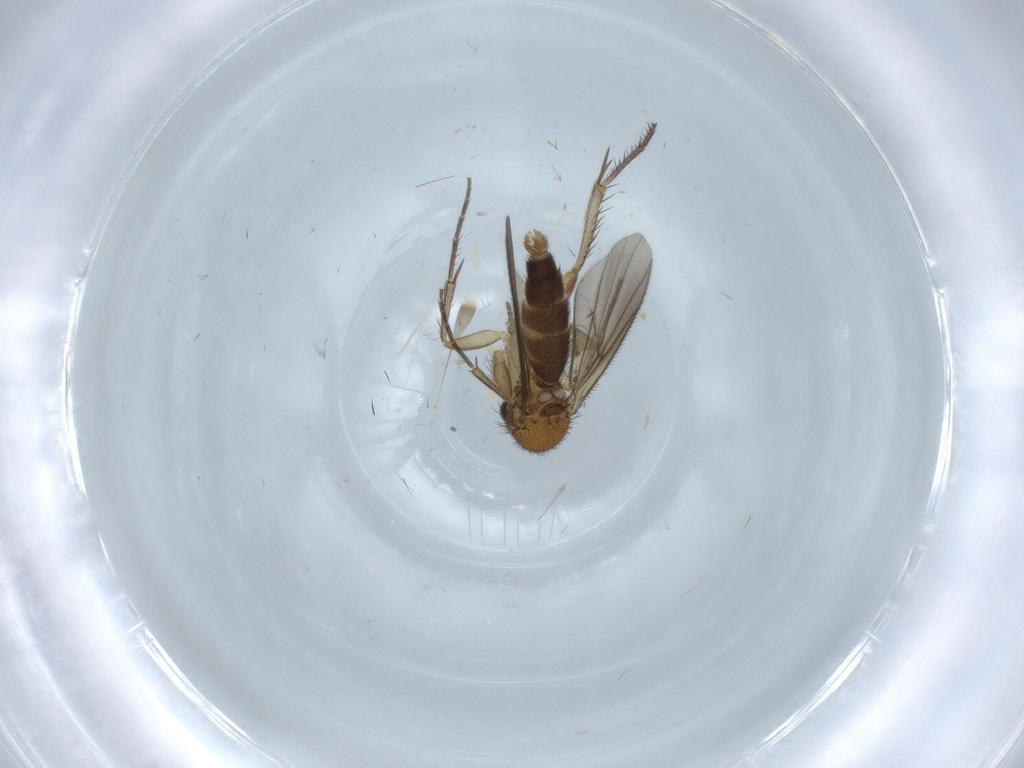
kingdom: Animalia
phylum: Arthropoda
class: Insecta
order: Diptera
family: Mycetophilidae
